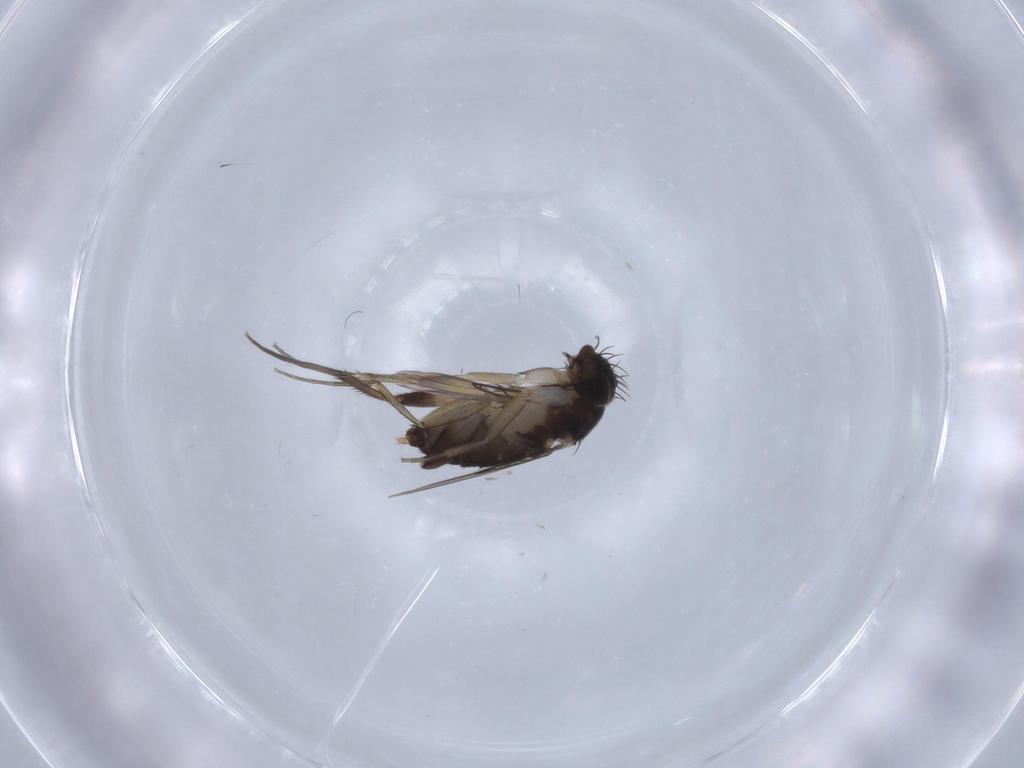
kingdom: Animalia
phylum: Arthropoda
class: Insecta
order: Diptera
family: Phoridae
